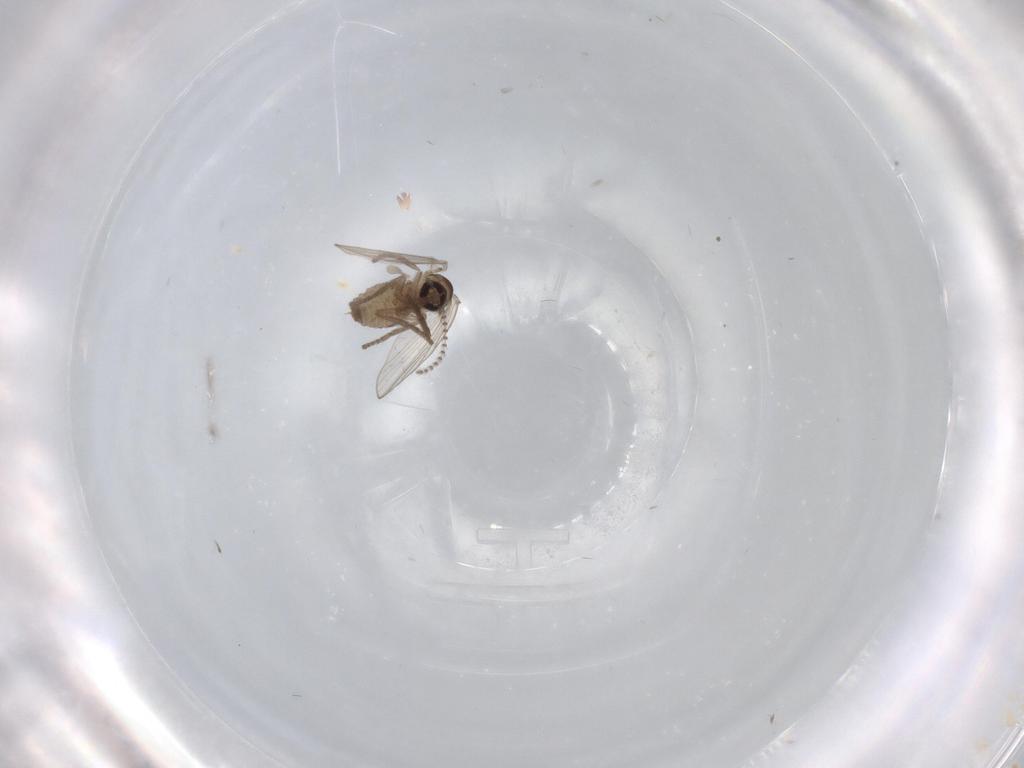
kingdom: Animalia
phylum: Arthropoda
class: Insecta
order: Diptera
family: Psychodidae
